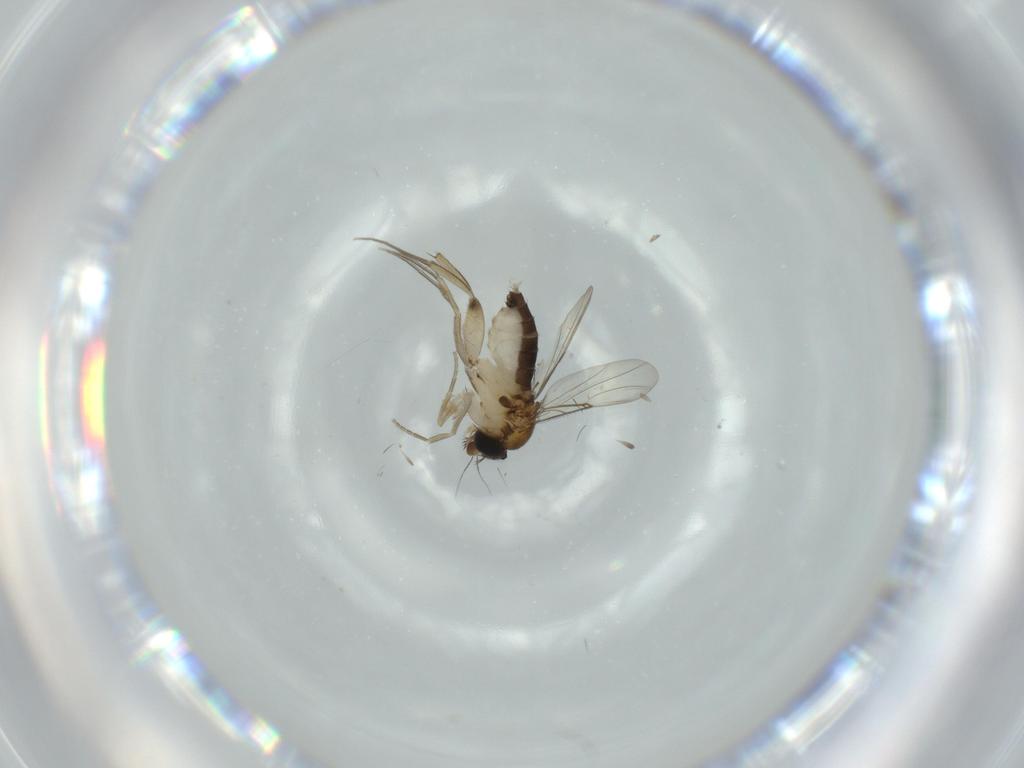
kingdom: Animalia
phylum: Arthropoda
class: Insecta
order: Diptera
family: Phoridae
